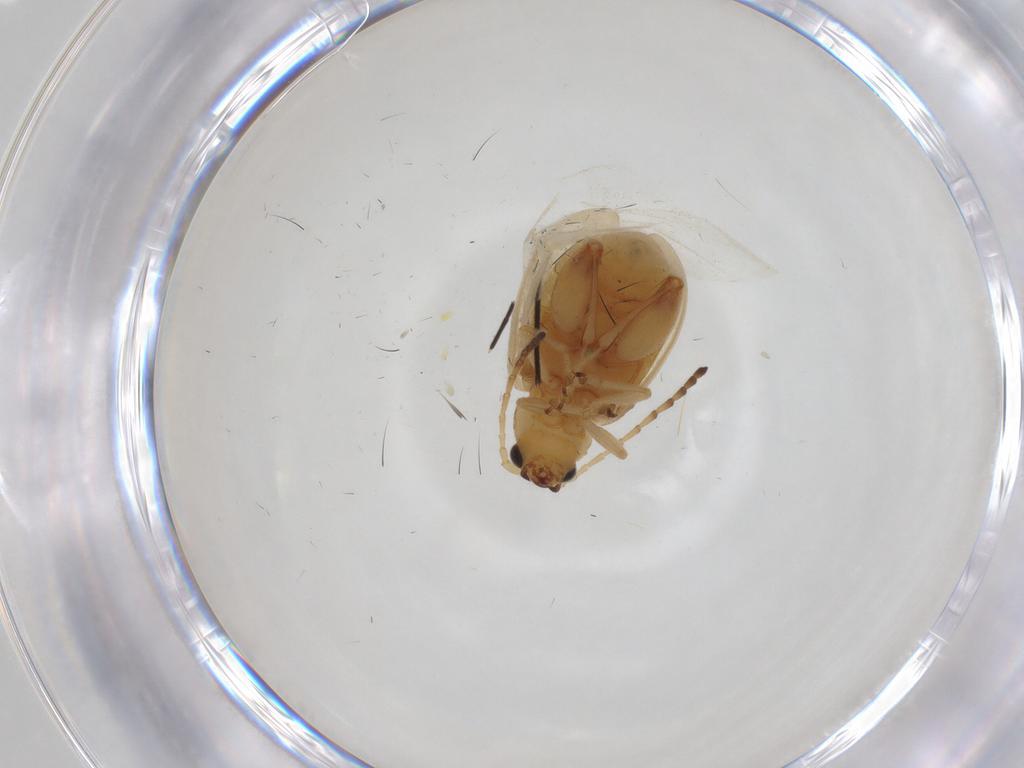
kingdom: Animalia
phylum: Arthropoda
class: Insecta
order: Coleoptera
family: Chrysomelidae
